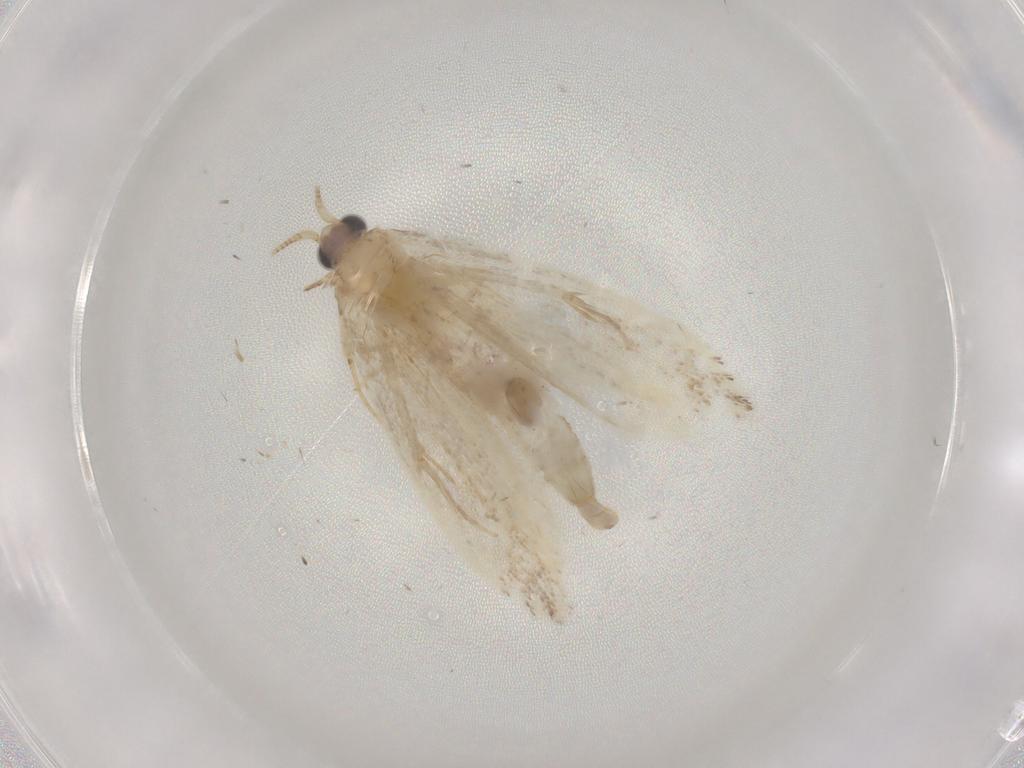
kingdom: Animalia
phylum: Arthropoda
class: Insecta
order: Lepidoptera
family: Nepticulidae
